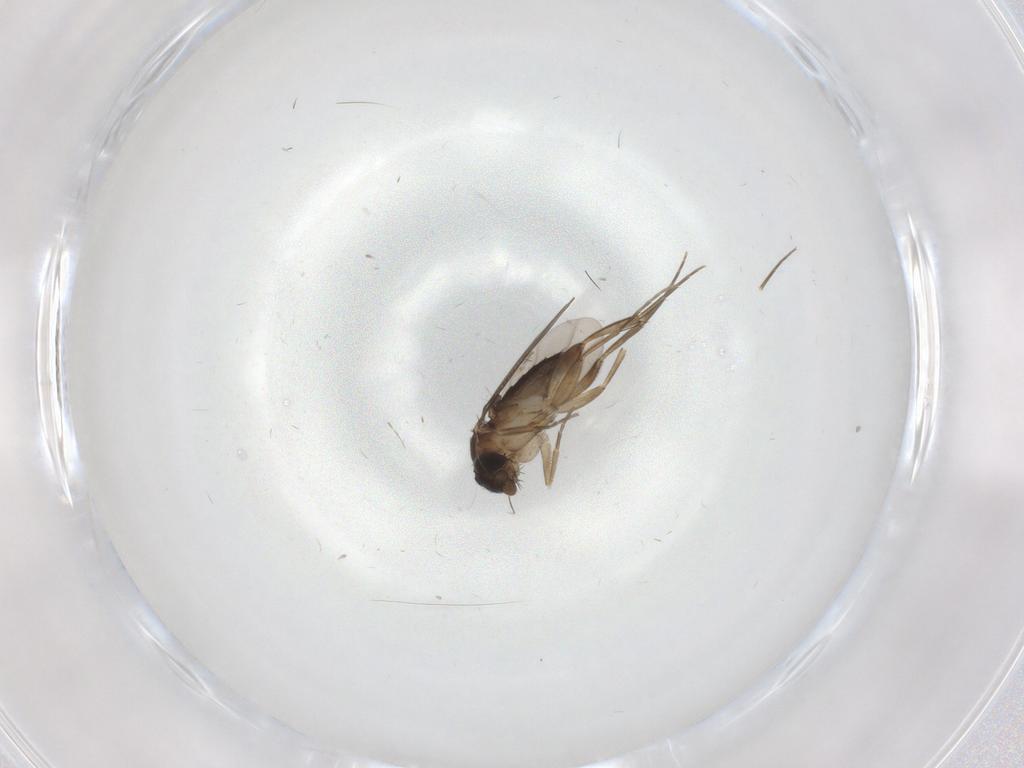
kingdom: Animalia
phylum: Arthropoda
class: Insecta
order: Diptera
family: Phoridae
